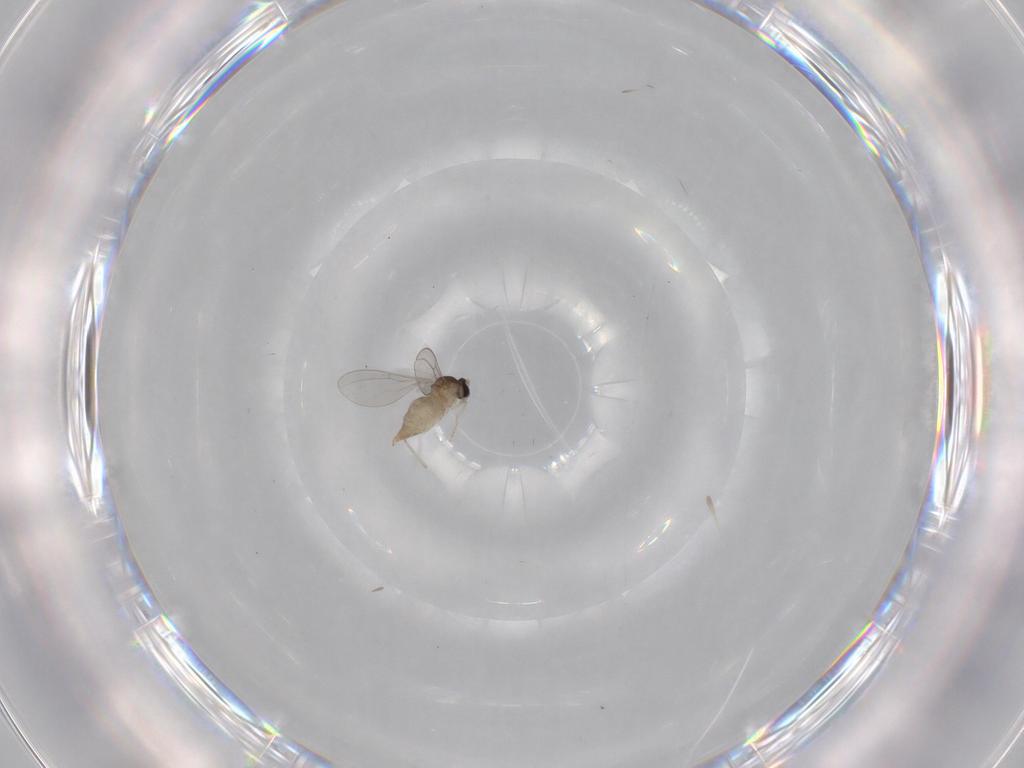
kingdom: Animalia
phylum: Arthropoda
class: Insecta
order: Diptera
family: Cecidomyiidae
